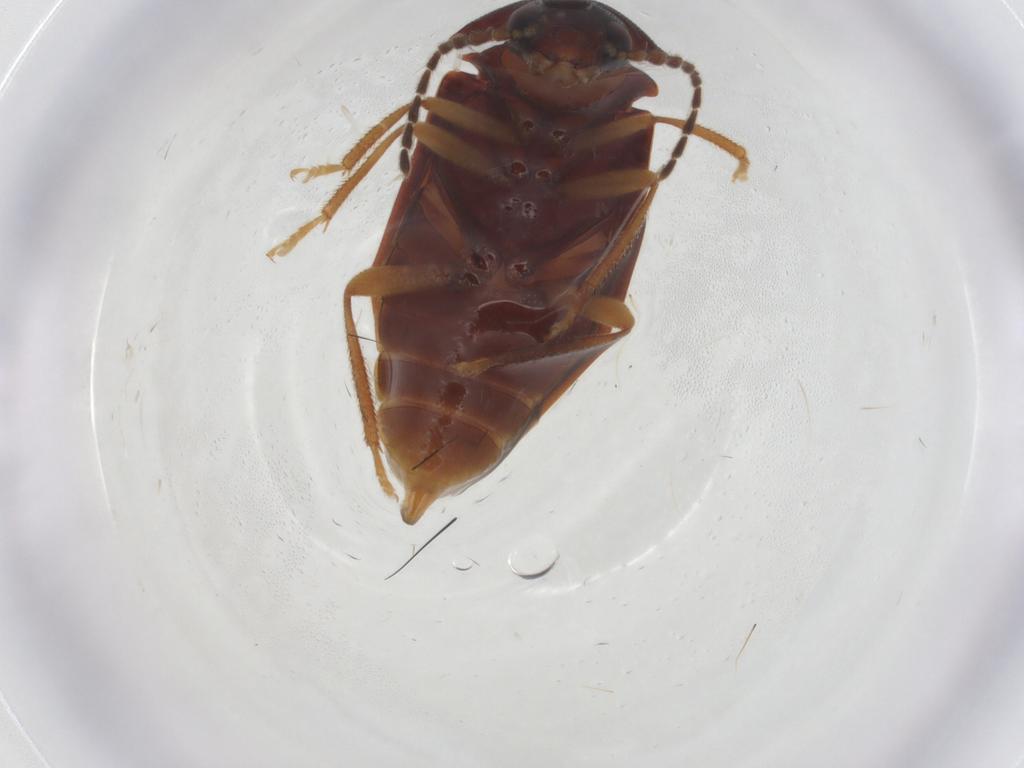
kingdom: Animalia
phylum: Arthropoda
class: Insecta
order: Coleoptera
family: Ptilodactylidae
